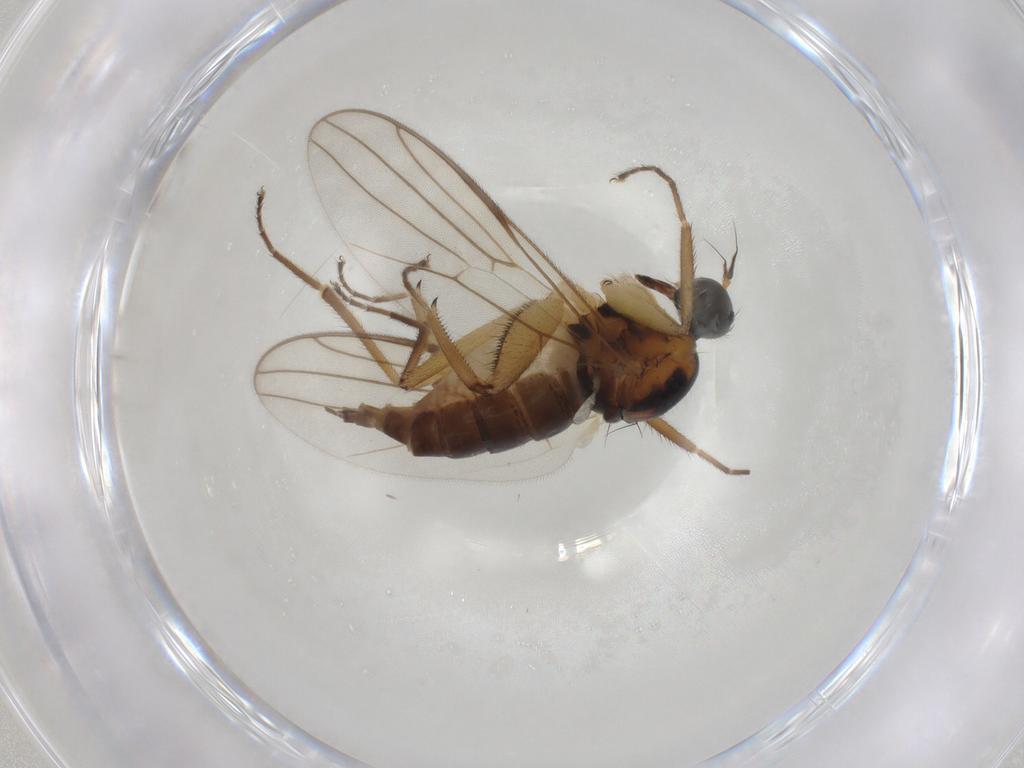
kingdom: Animalia
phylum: Arthropoda
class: Insecta
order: Diptera
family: Hybotidae
